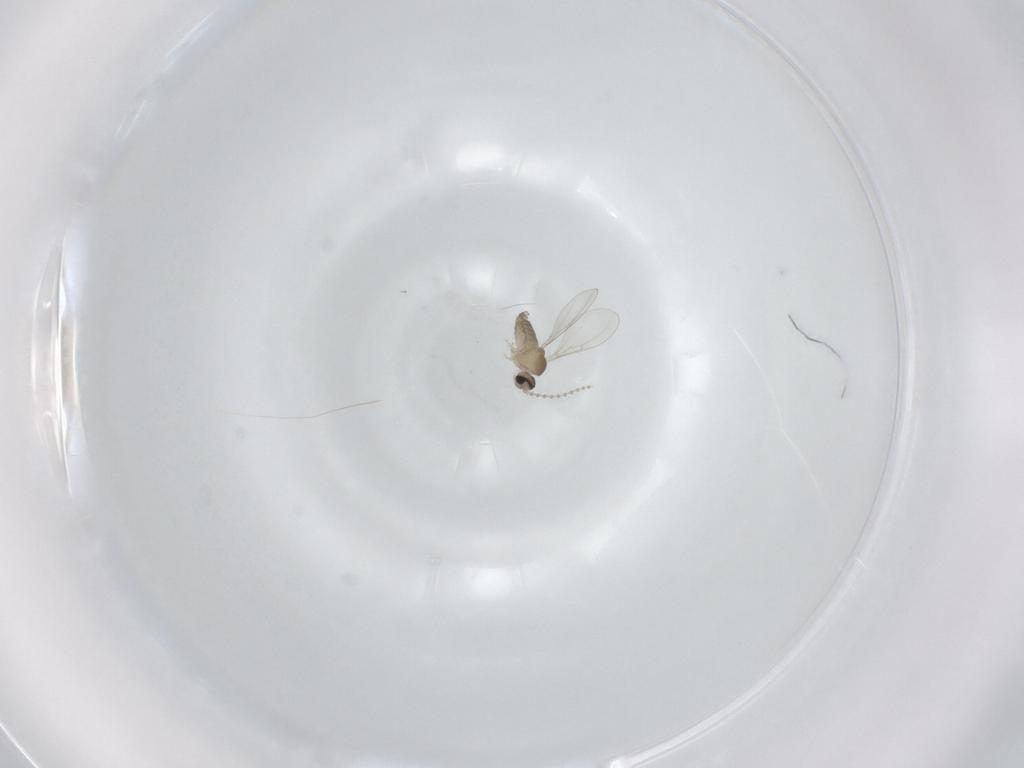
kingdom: Animalia
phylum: Arthropoda
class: Insecta
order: Diptera
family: Cecidomyiidae
